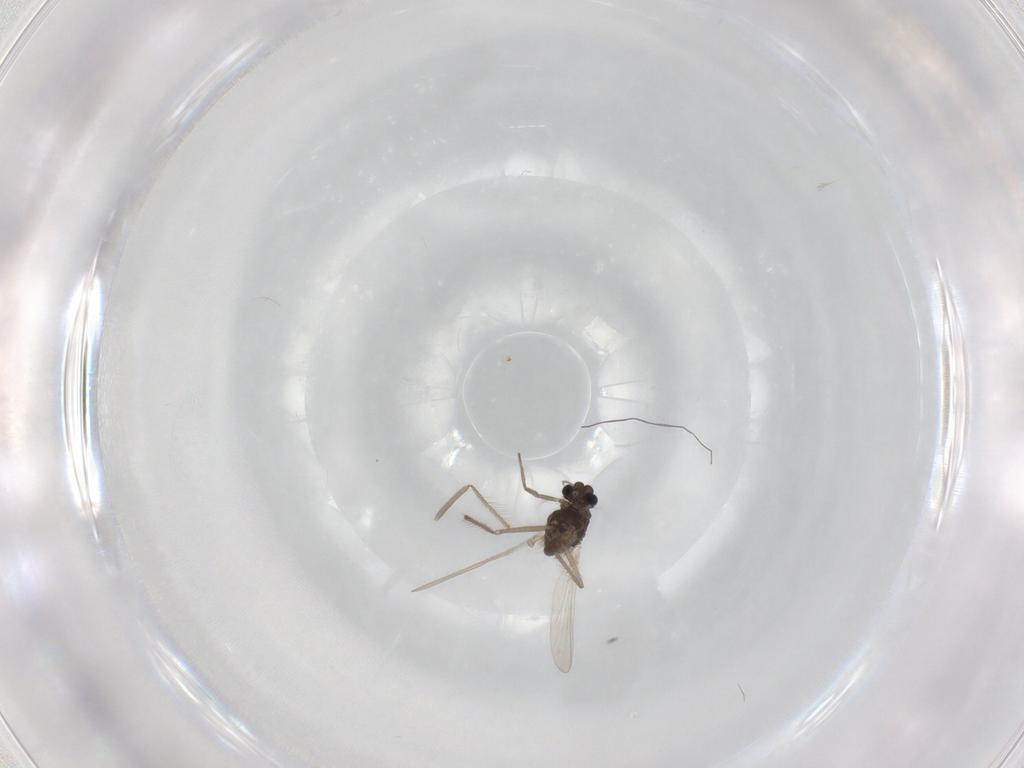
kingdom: Animalia
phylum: Arthropoda
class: Insecta
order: Diptera
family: Chironomidae
